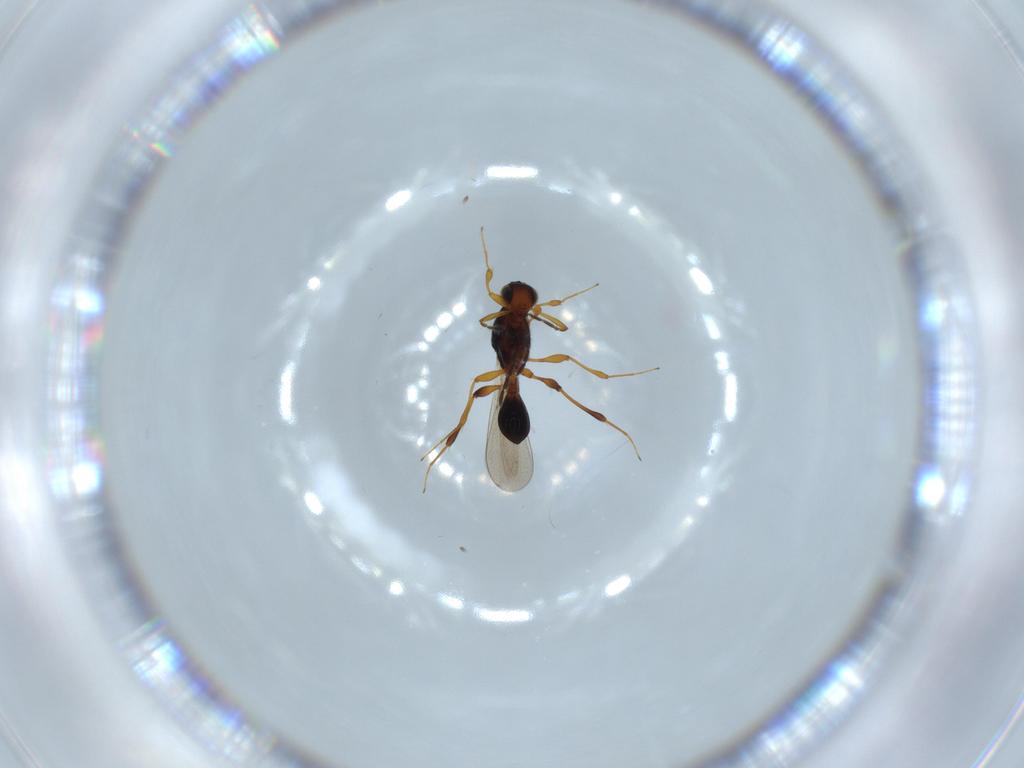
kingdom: Animalia
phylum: Arthropoda
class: Insecta
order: Hymenoptera
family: Platygastridae
